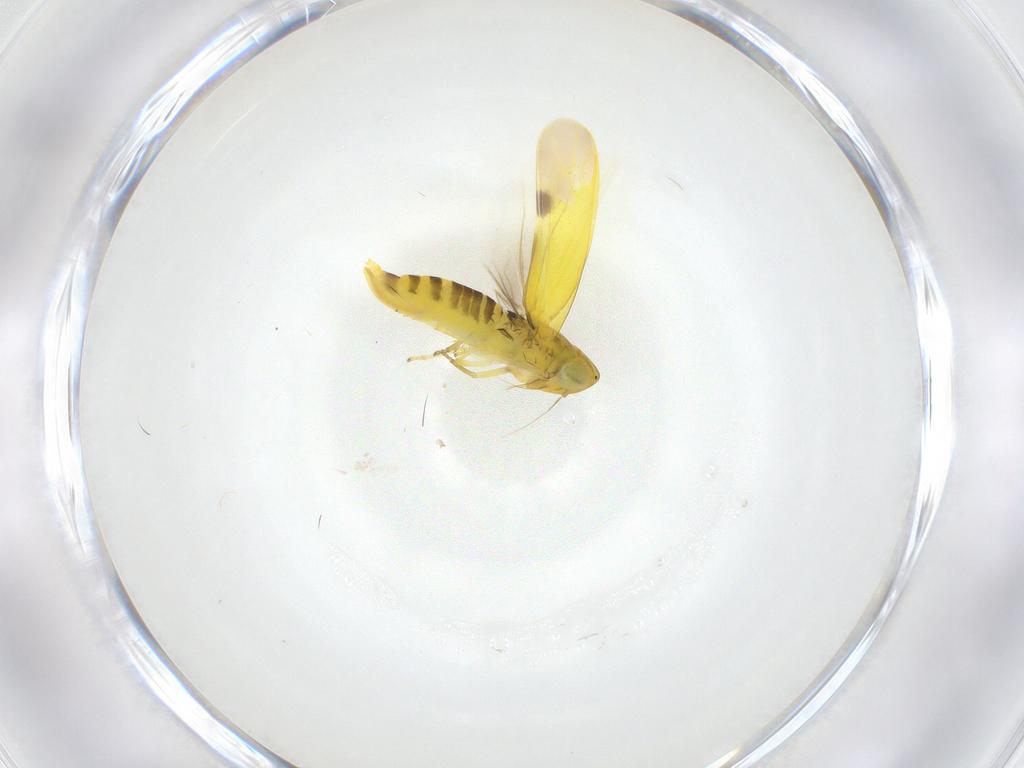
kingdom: Animalia
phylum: Arthropoda
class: Insecta
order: Hemiptera
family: Cicadellidae
